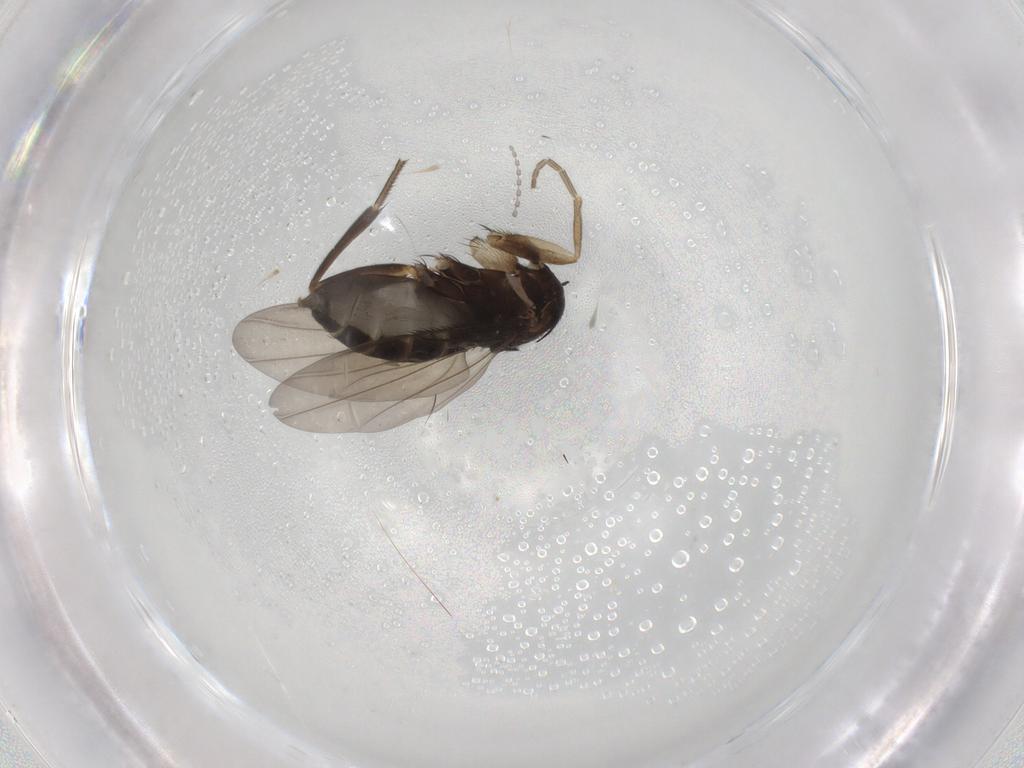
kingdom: Animalia
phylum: Arthropoda
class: Insecta
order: Diptera
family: Phoridae
